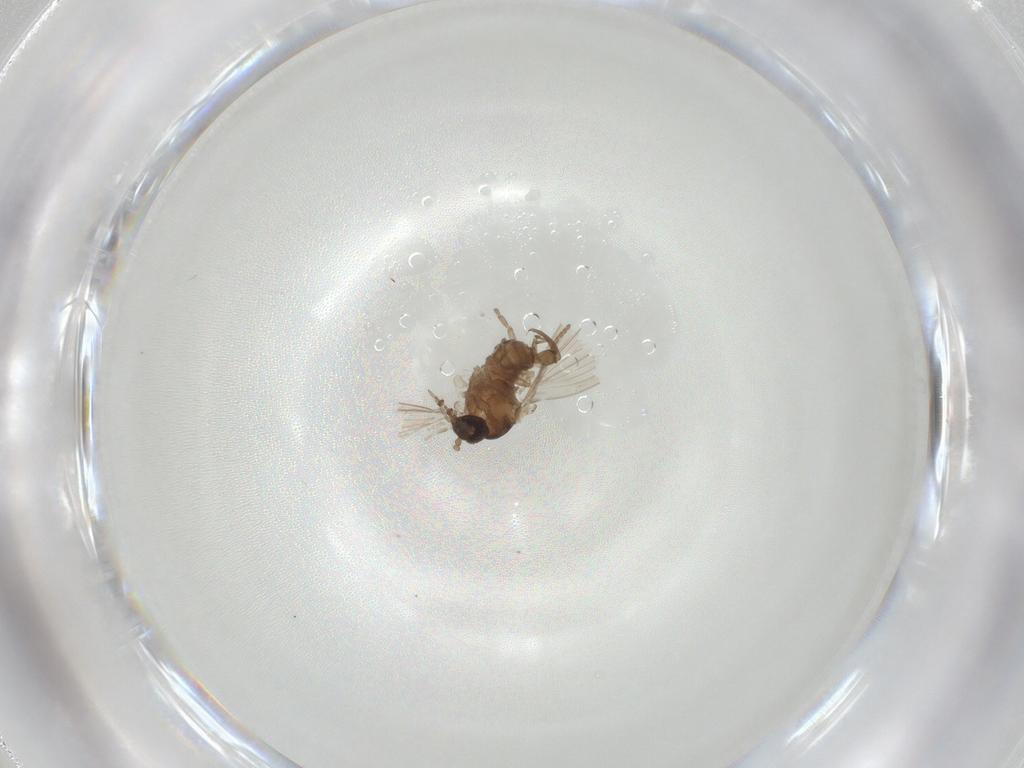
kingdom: Animalia
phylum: Arthropoda
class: Insecta
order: Diptera
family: Psychodidae
